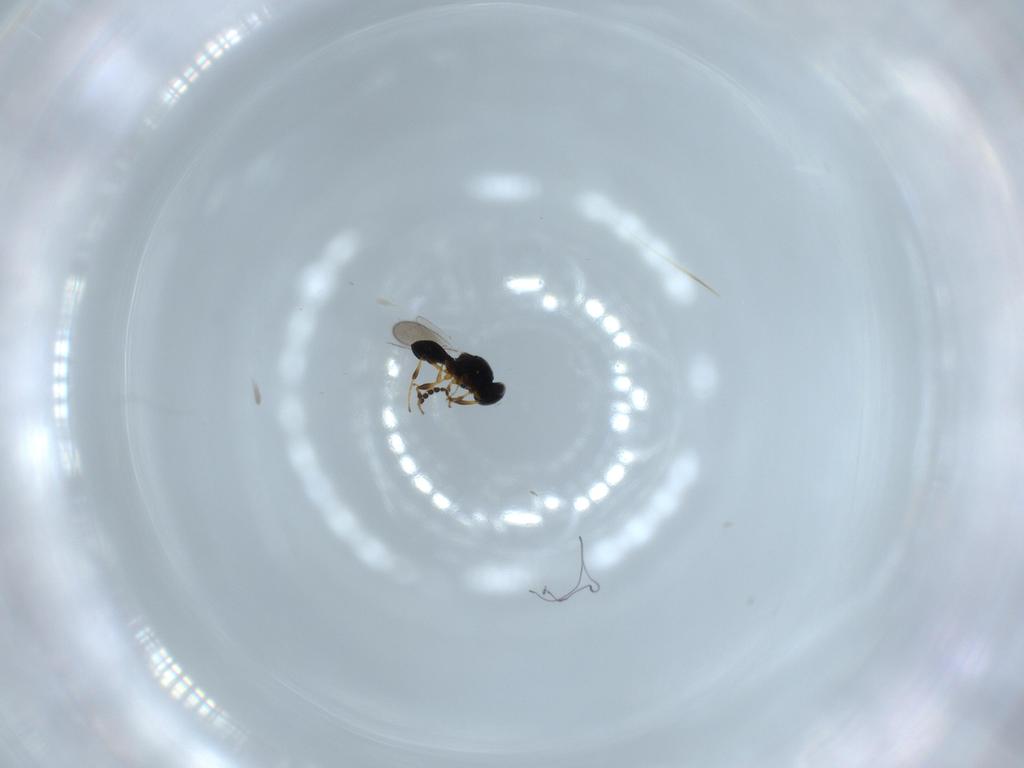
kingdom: Animalia
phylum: Arthropoda
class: Insecta
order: Hymenoptera
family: Platygastridae
